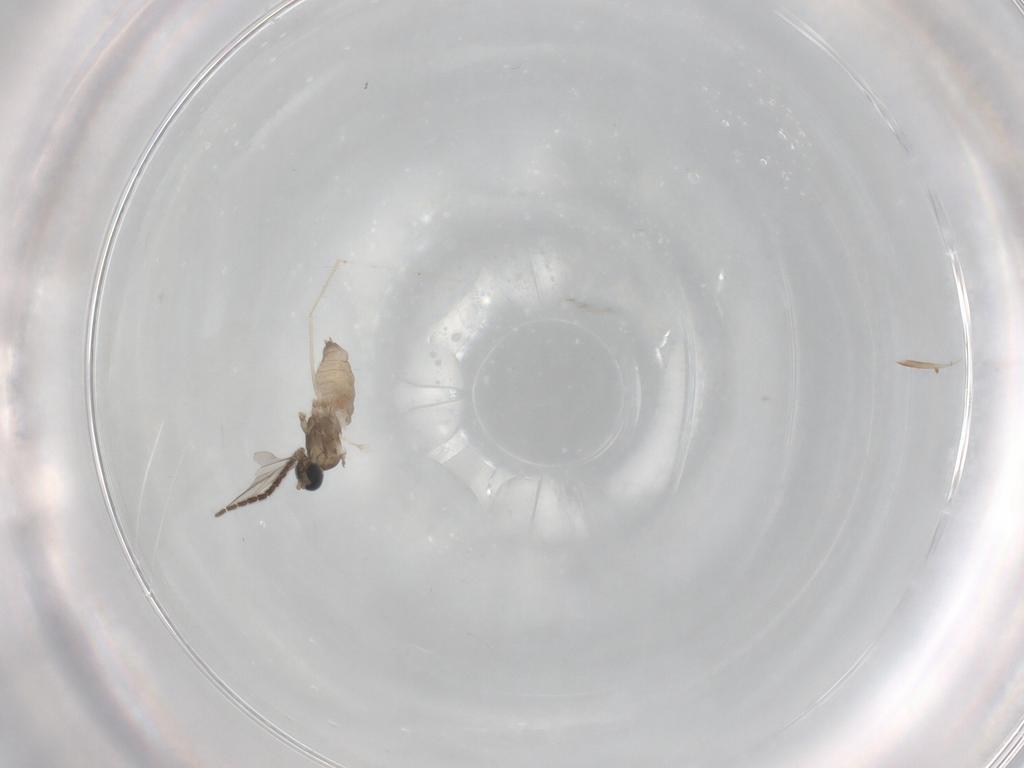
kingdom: Animalia
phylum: Arthropoda
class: Insecta
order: Diptera
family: Cecidomyiidae
